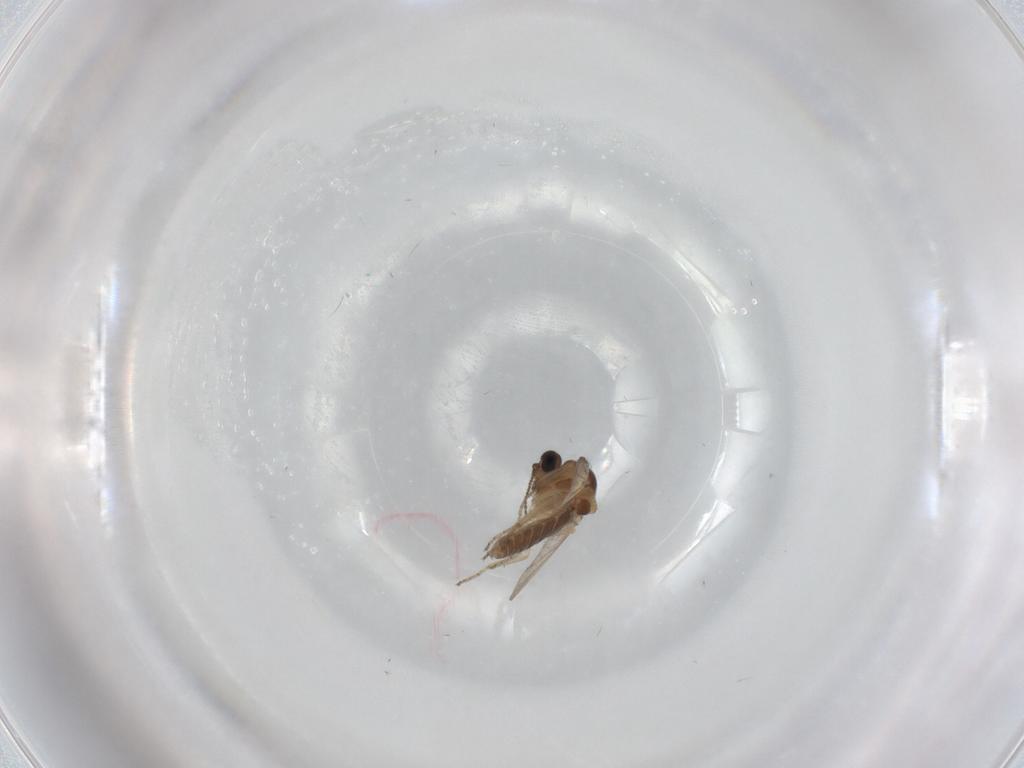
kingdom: Animalia
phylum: Arthropoda
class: Insecta
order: Diptera
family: Ceratopogonidae
